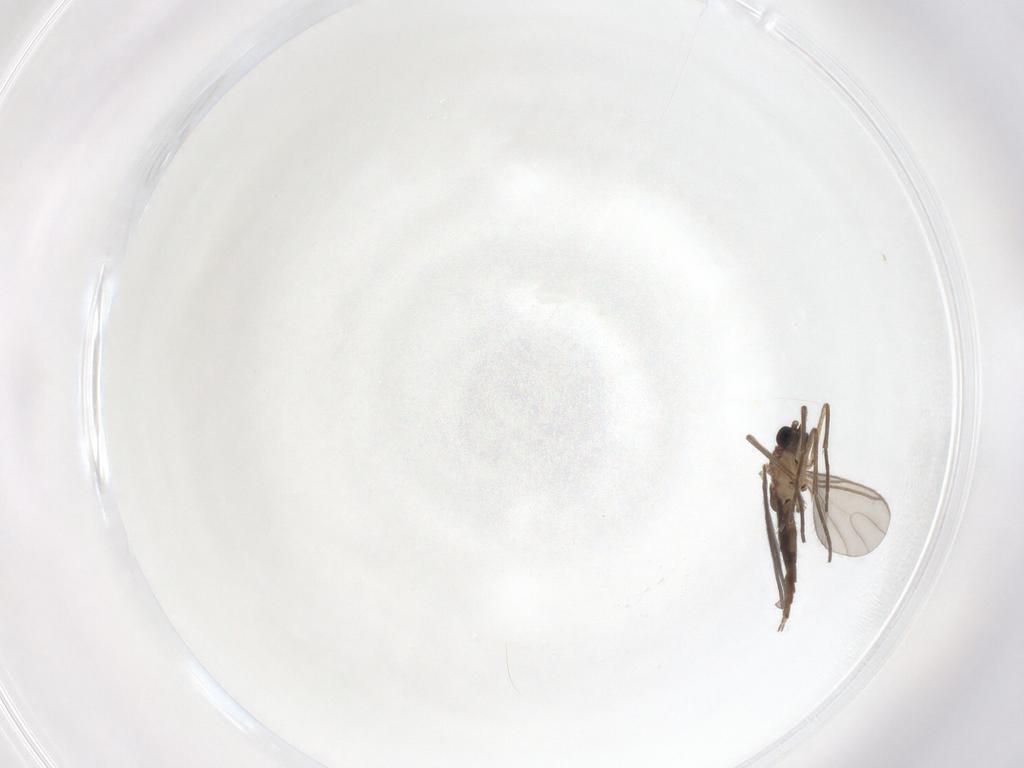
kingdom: Animalia
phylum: Arthropoda
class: Insecta
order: Diptera
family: Sciaridae
